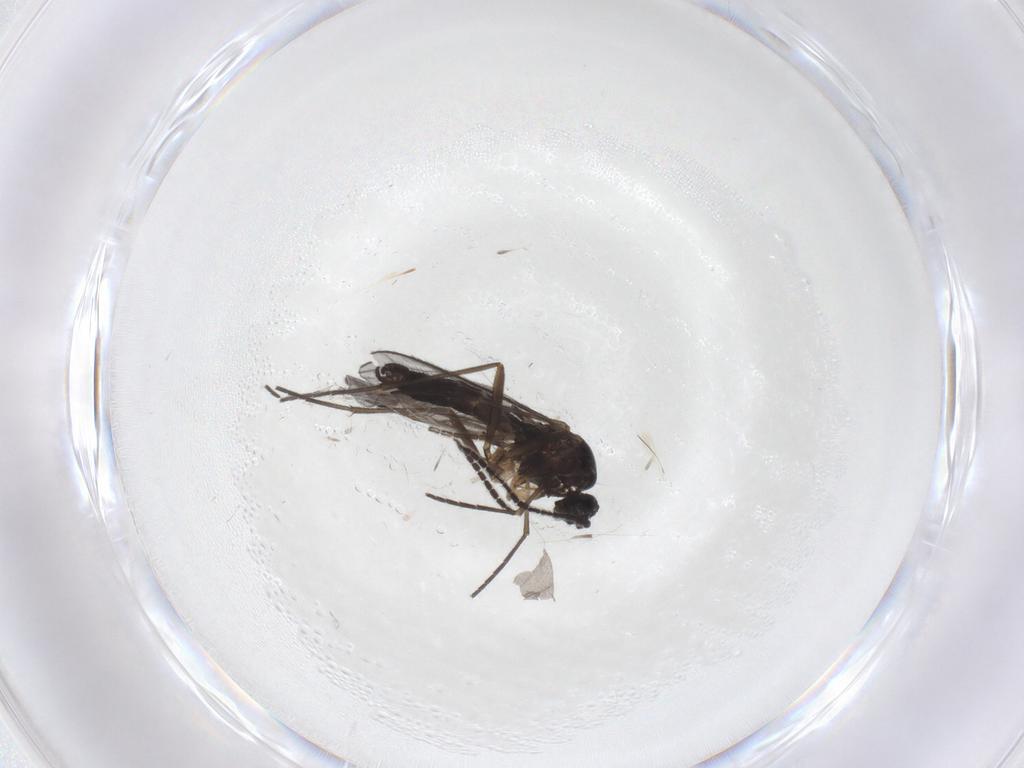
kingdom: Animalia
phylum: Arthropoda
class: Insecta
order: Diptera
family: Sciaridae
